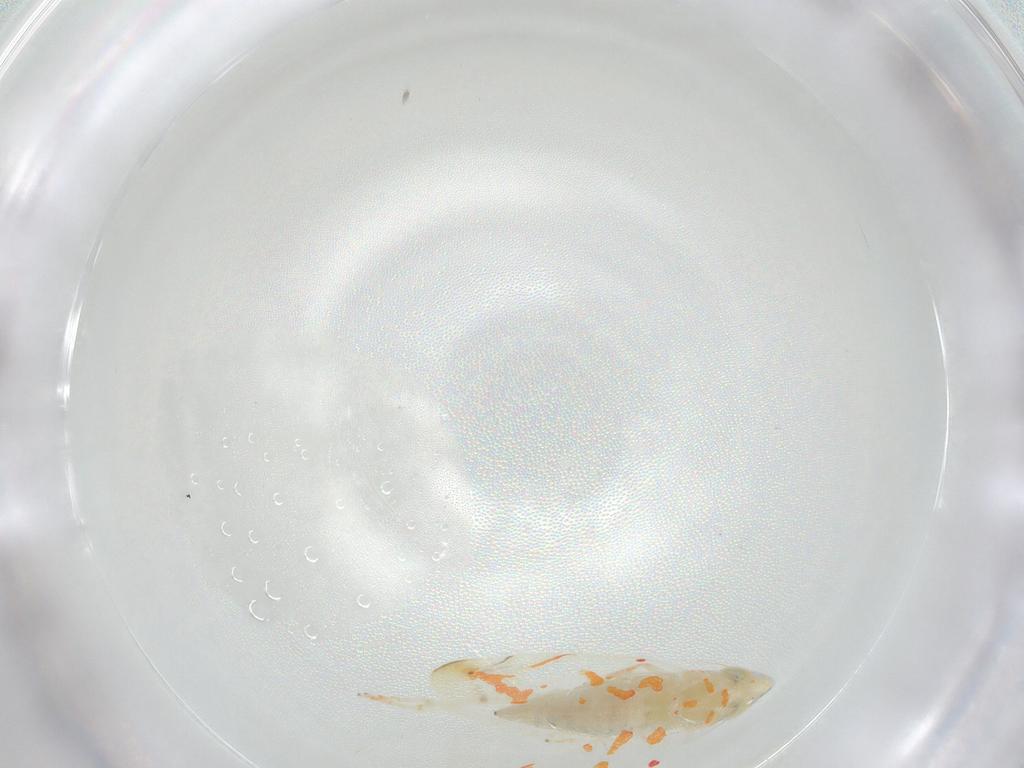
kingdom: Animalia
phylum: Arthropoda
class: Insecta
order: Hemiptera
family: Cicadellidae
